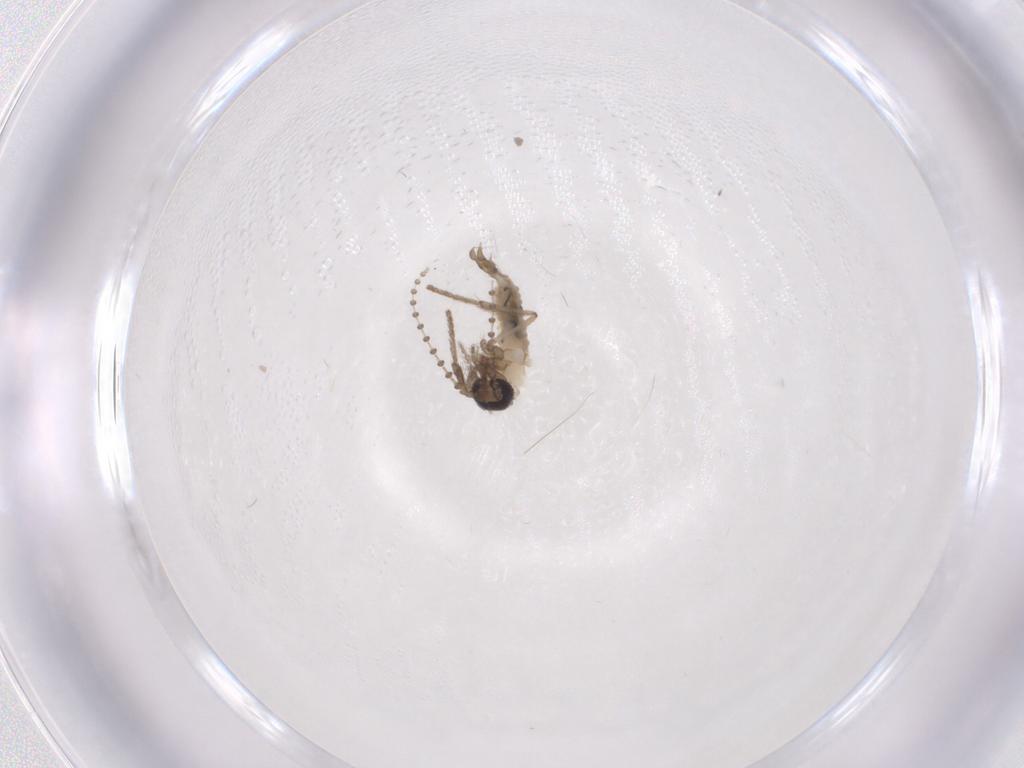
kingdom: Animalia
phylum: Arthropoda
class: Insecta
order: Diptera
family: Psychodidae
